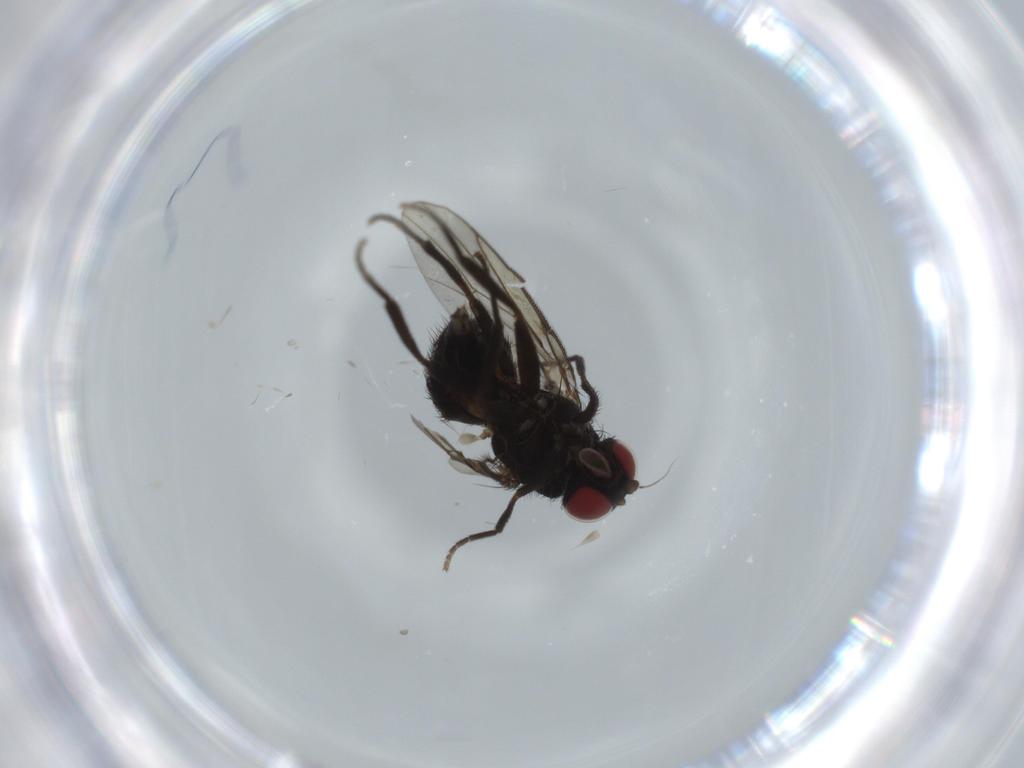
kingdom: Animalia
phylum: Arthropoda
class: Insecta
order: Diptera
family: Agromyzidae
